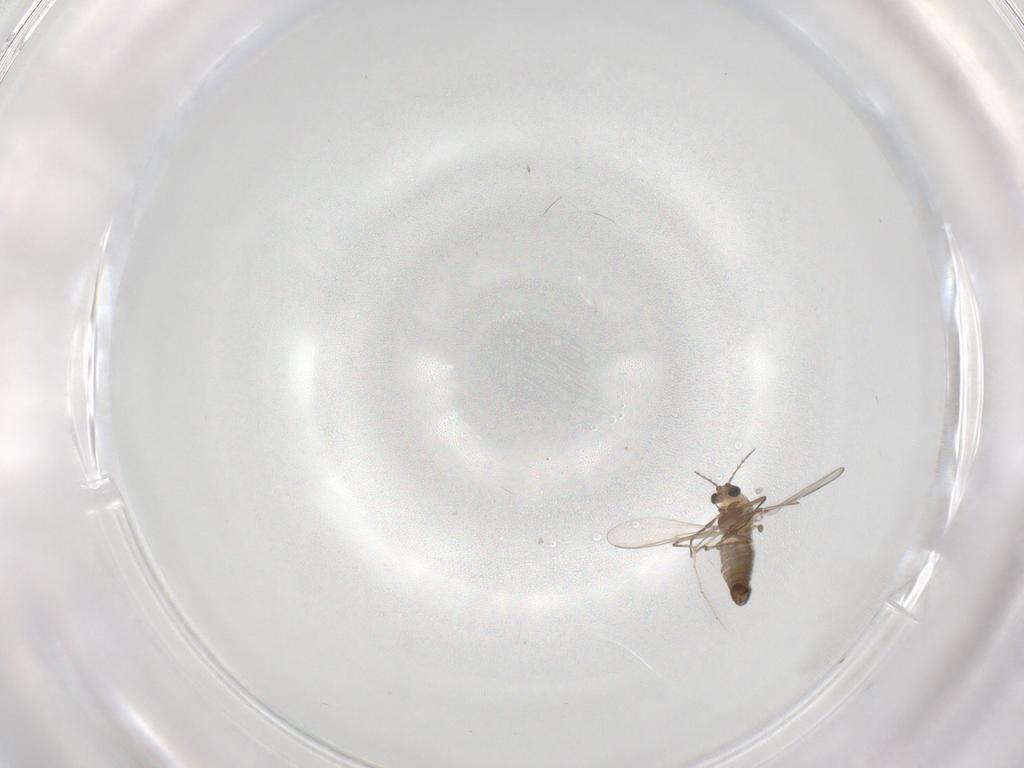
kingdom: Animalia
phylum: Arthropoda
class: Insecta
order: Diptera
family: Cecidomyiidae
